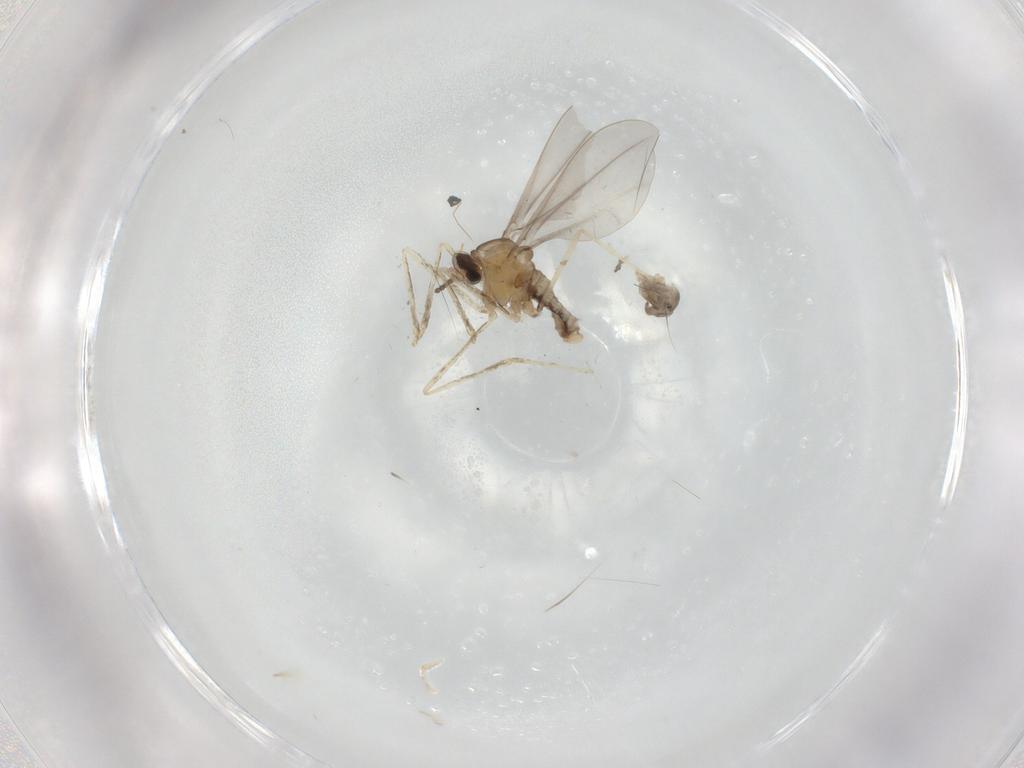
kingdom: Animalia
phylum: Arthropoda
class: Insecta
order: Diptera
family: Cecidomyiidae
